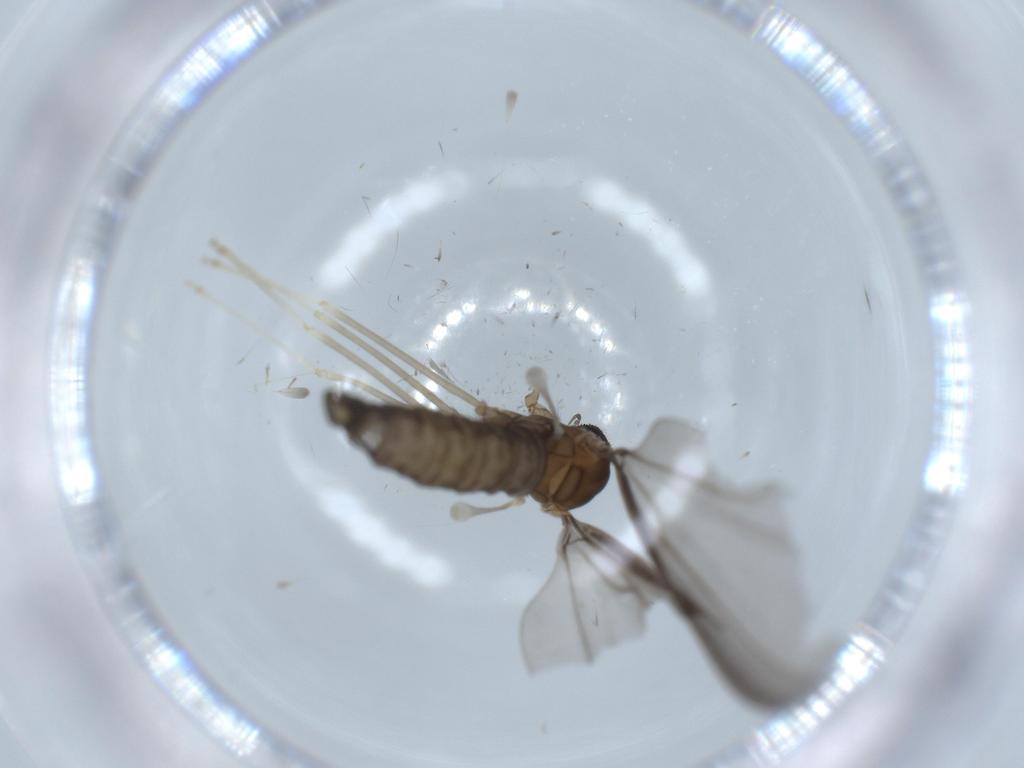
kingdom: Animalia
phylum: Arthropoda
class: Insecta
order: Diptera
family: Cecidomyiidae
